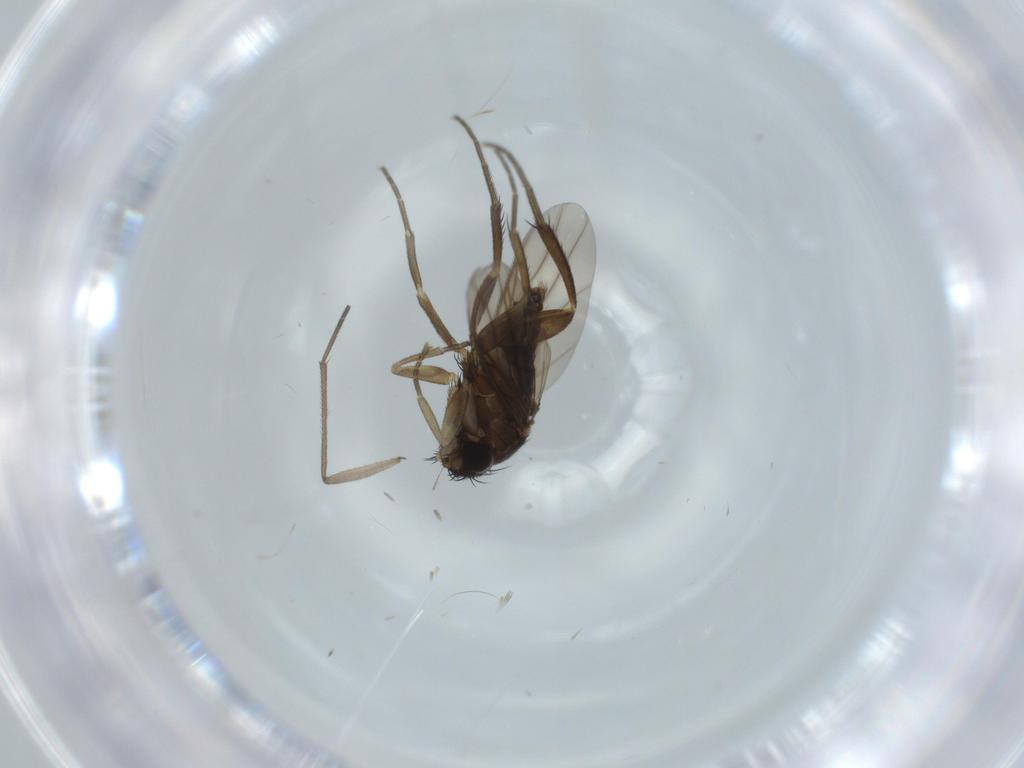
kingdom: Animalia
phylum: Arthropoda
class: Insecta
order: Diptera
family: Phoridae
